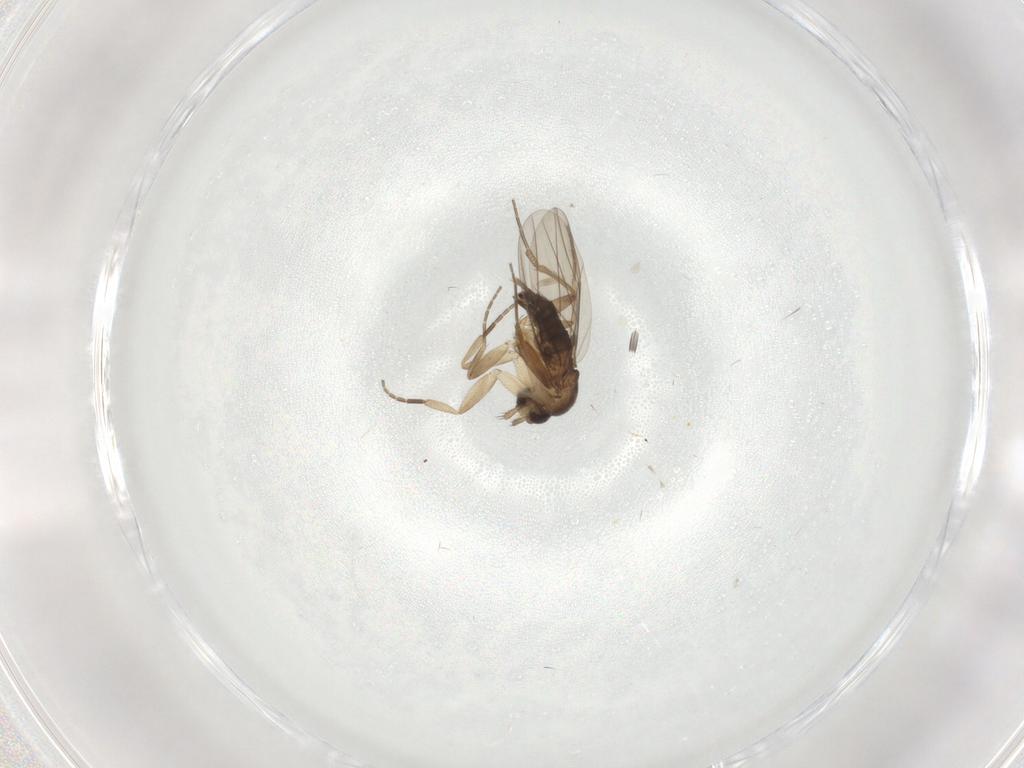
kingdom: Animalia
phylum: Arthropoda
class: Insecta
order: Diptera
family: Phoridae
